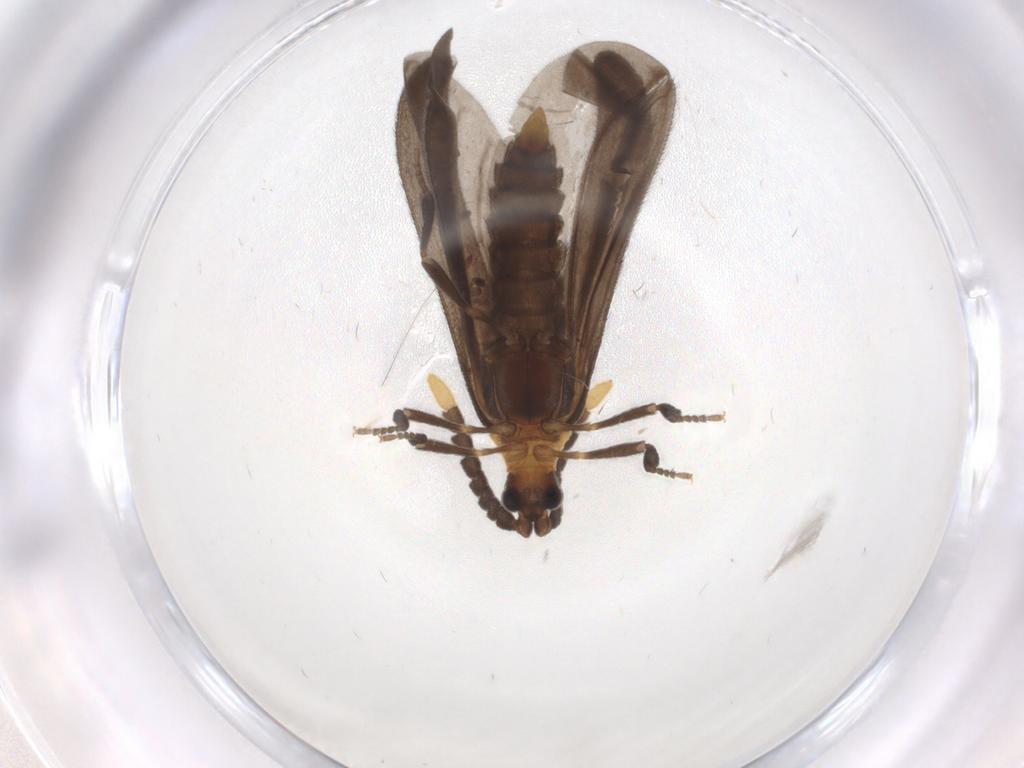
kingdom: Animalia
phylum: Arthropoda
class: Insecta
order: Coleoptera
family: Lycidae
